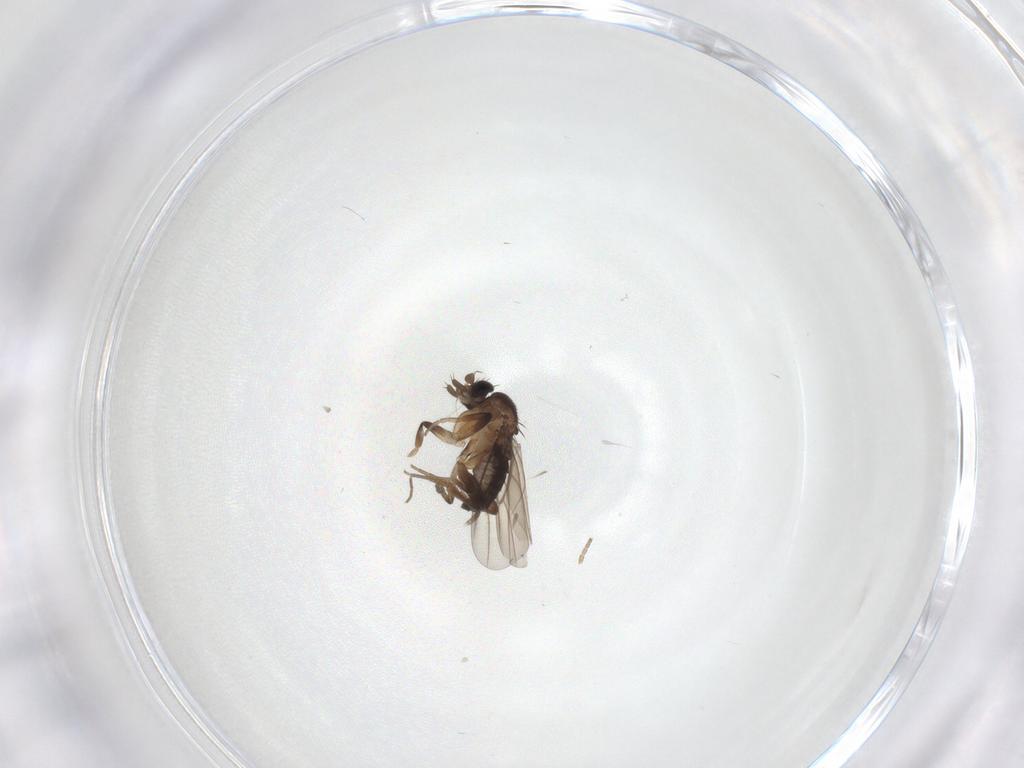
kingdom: Animalia
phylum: Arthropoda
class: Insecta
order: Diptera
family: Phoridae
